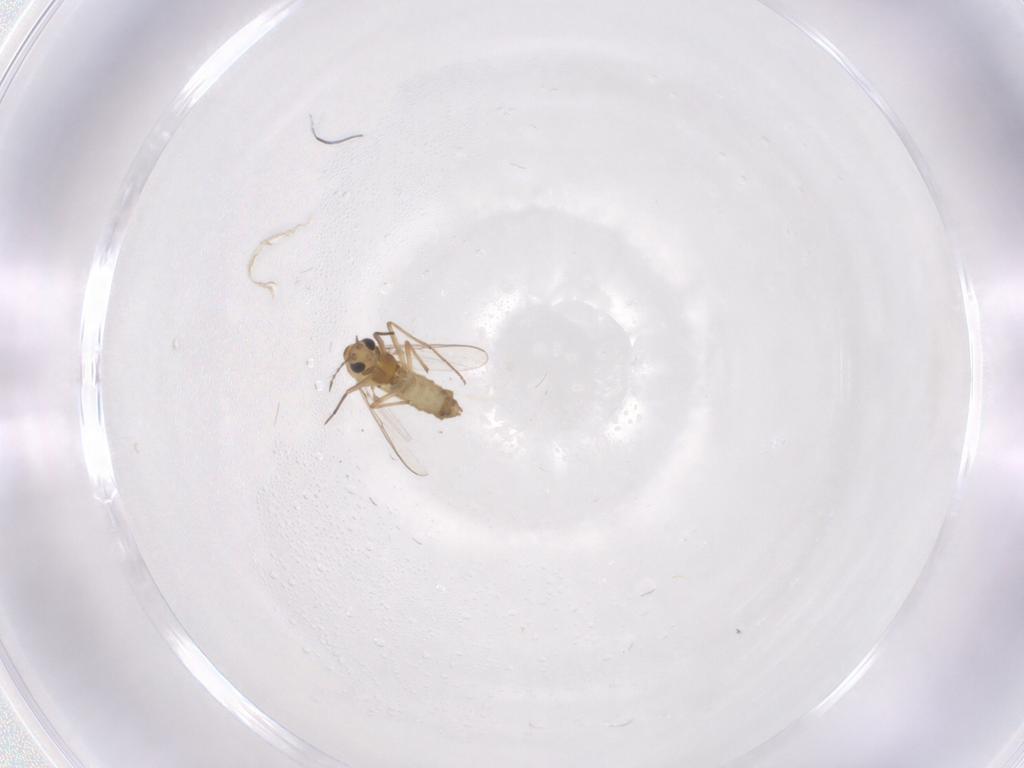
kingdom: Animalia
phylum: Arthropoda
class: Insecta
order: Diptera
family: Chironomidae
